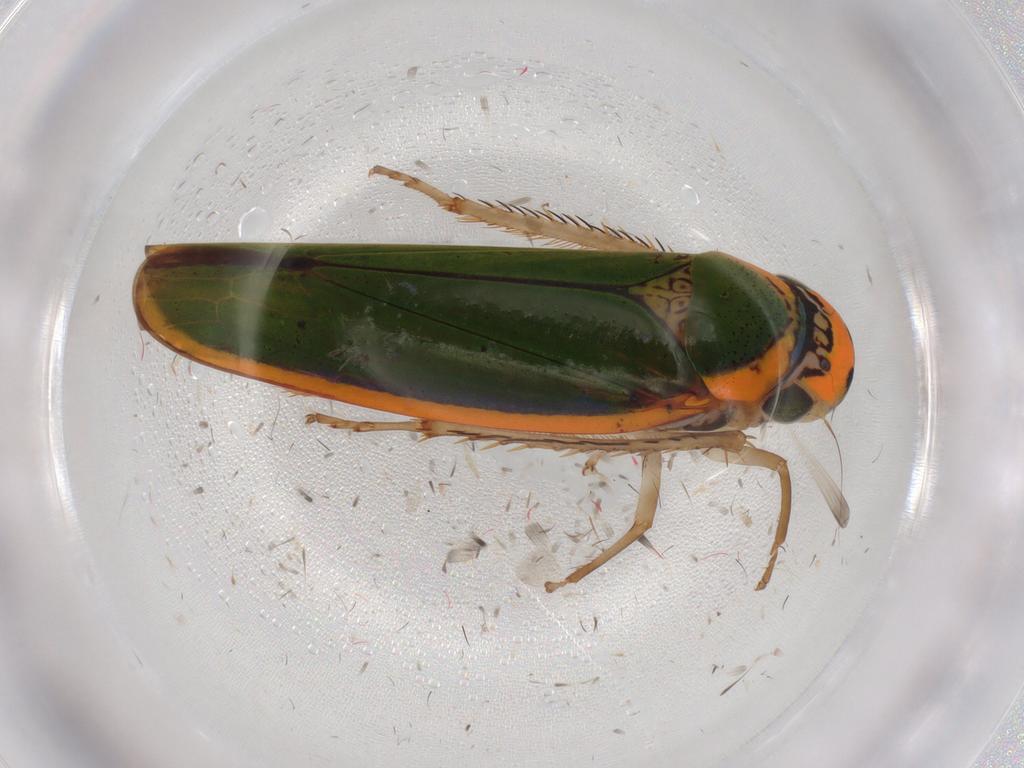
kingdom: Animalia
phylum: Arthropoda
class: Insecta
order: Hemiptera
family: Cicadellidae
